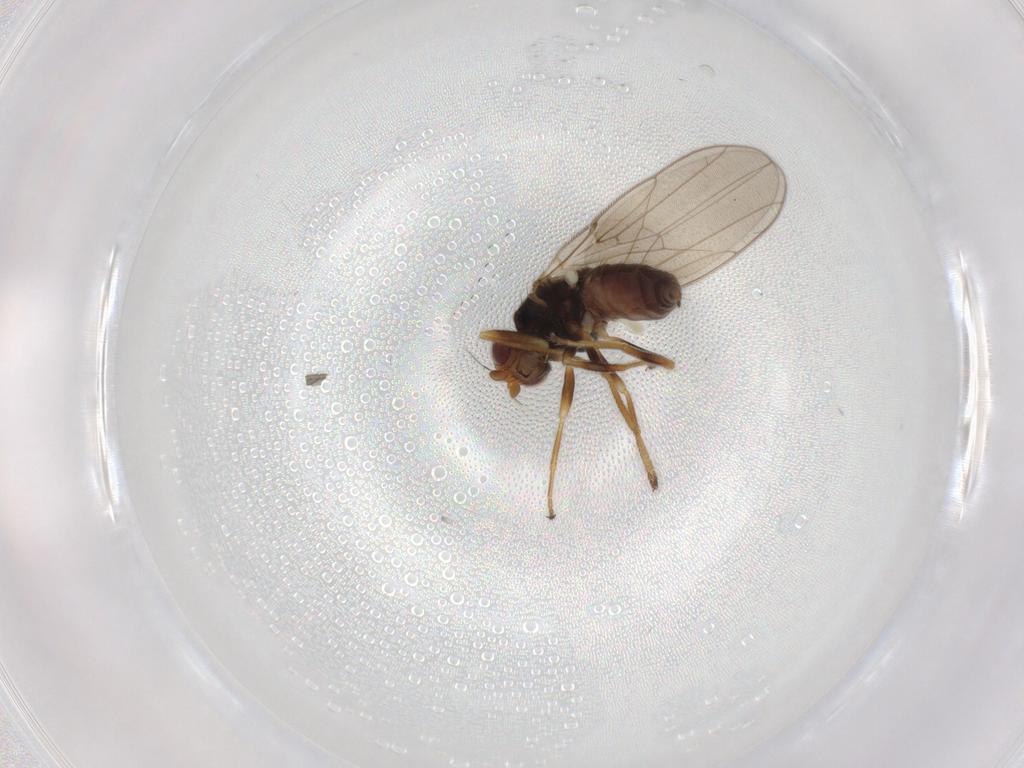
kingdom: Animalia
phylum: Arthropoda
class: Insecta
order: Diptera
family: Chloropidae
